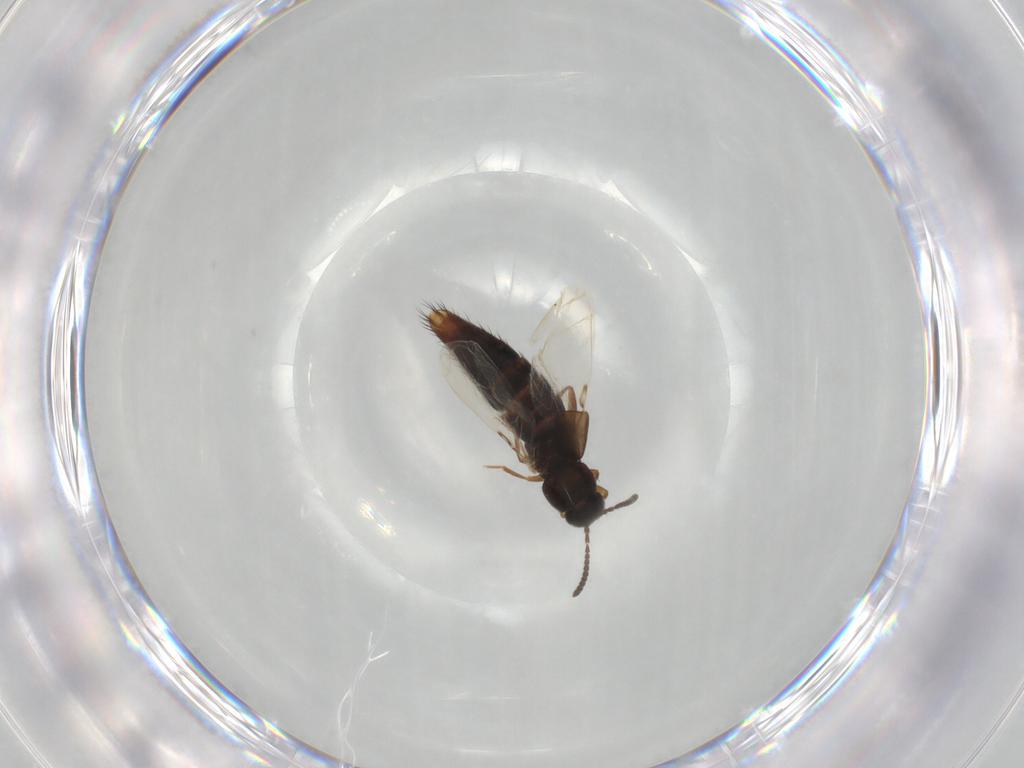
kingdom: Animalia
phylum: Arthropoda
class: Insecta
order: Coleoptera
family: Staphylinidae
